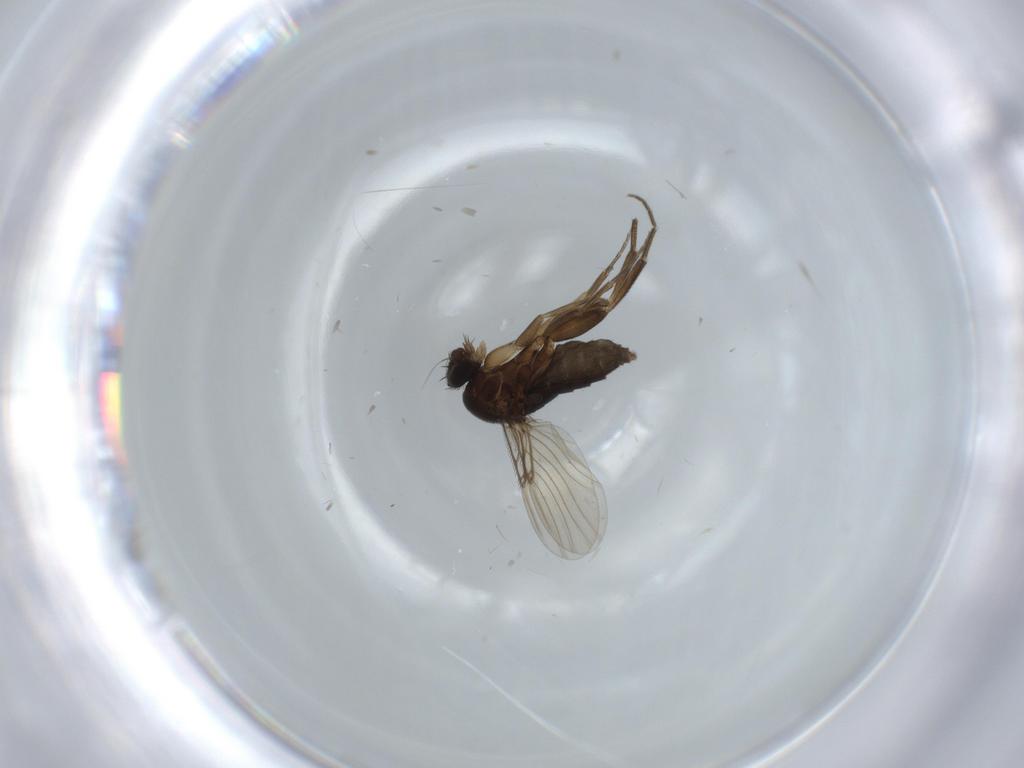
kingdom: Animalia
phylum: Arthropoda
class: Insecta
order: Diptera
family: Phoridae
